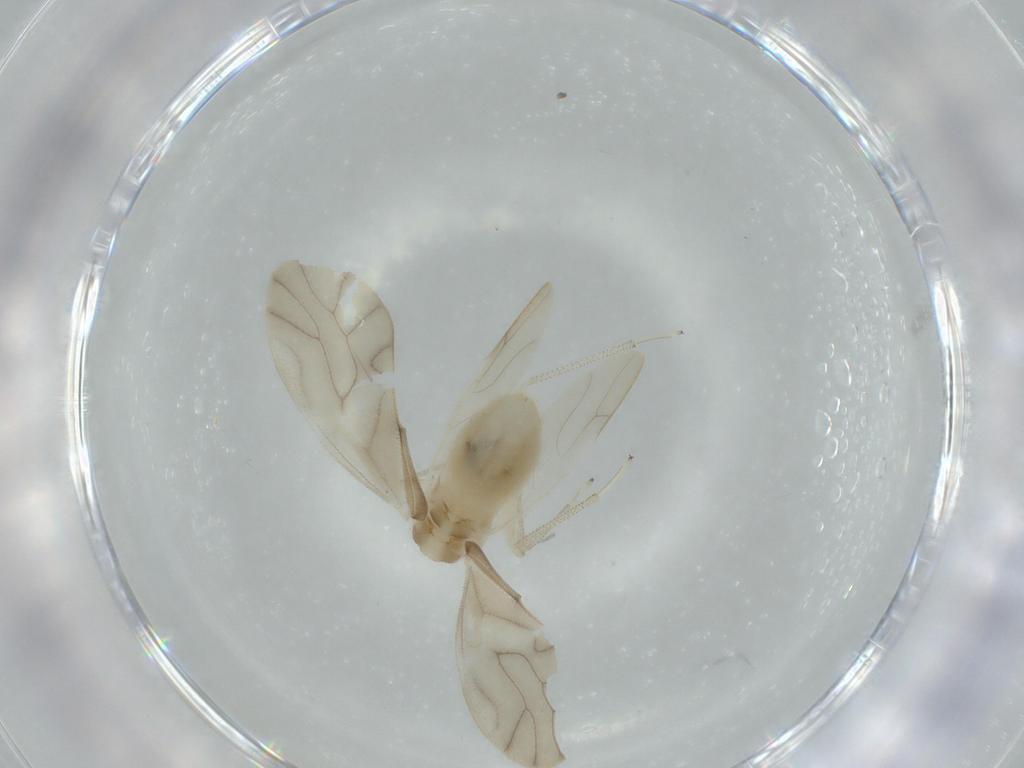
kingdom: Animalia
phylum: Arthropoda
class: Insecta
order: Psocodea
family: Caeciliusidae
